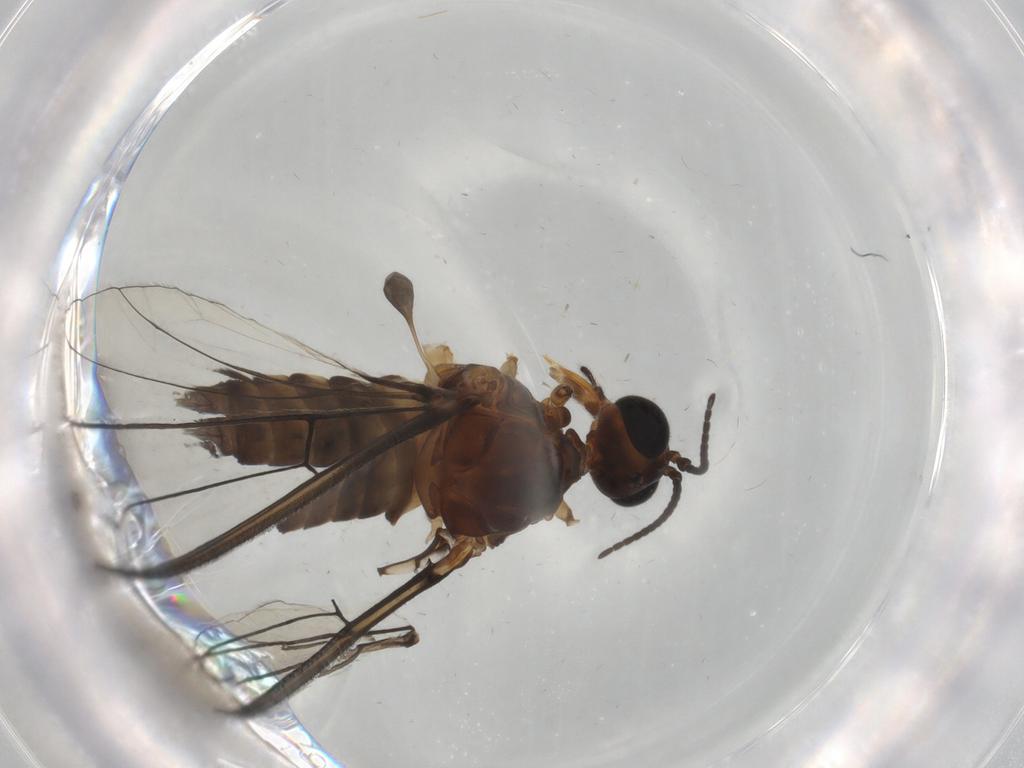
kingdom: Animalia
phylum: Arthropoda
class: Insecta
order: Diptera
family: Blephariceridae
